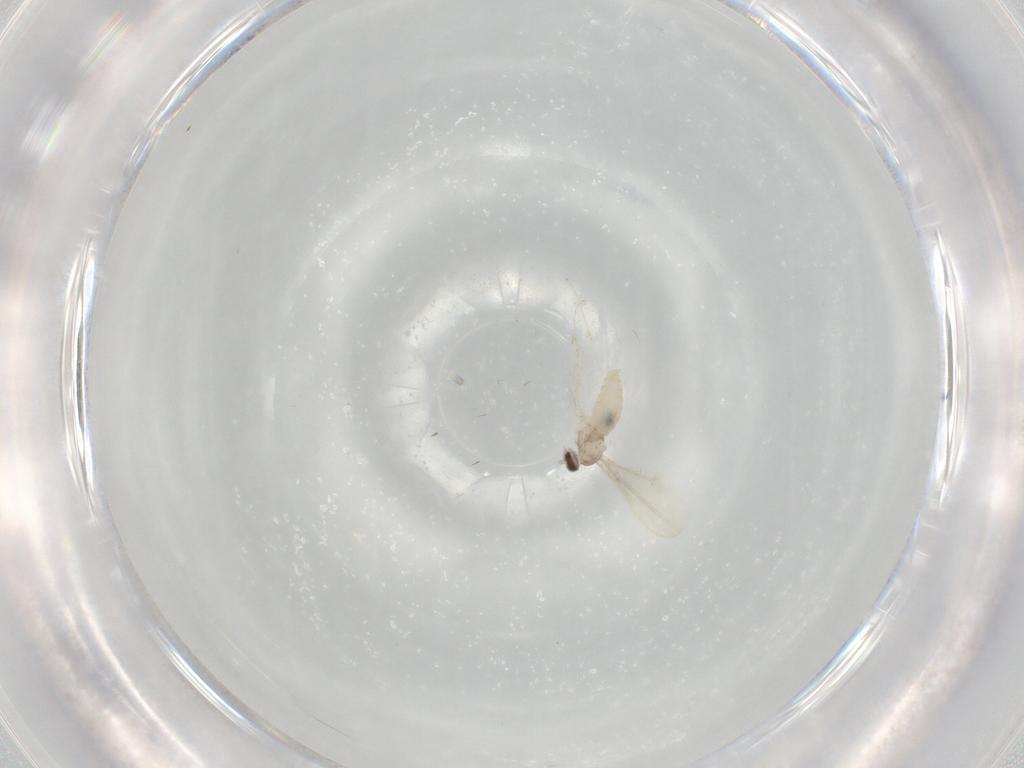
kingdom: Animalia
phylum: Arthropoda
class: Insecta
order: Diptera
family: Cecidomyiidae
